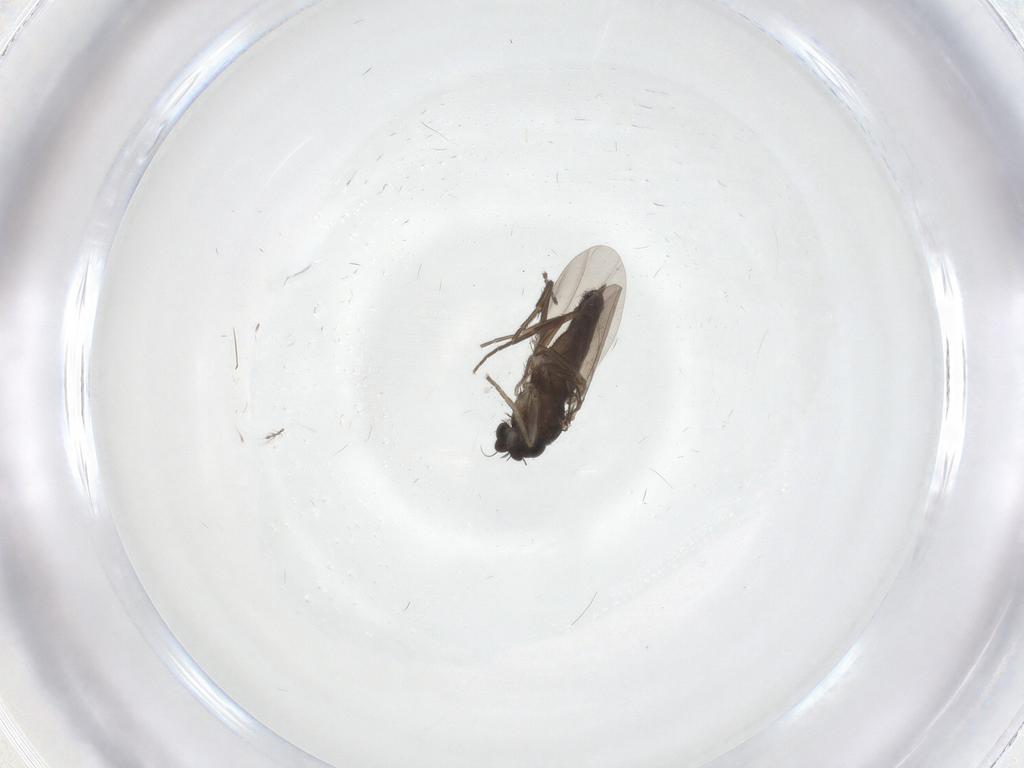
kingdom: Animalia
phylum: Arthropoda
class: Insecta
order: Diptera
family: Phoridae
